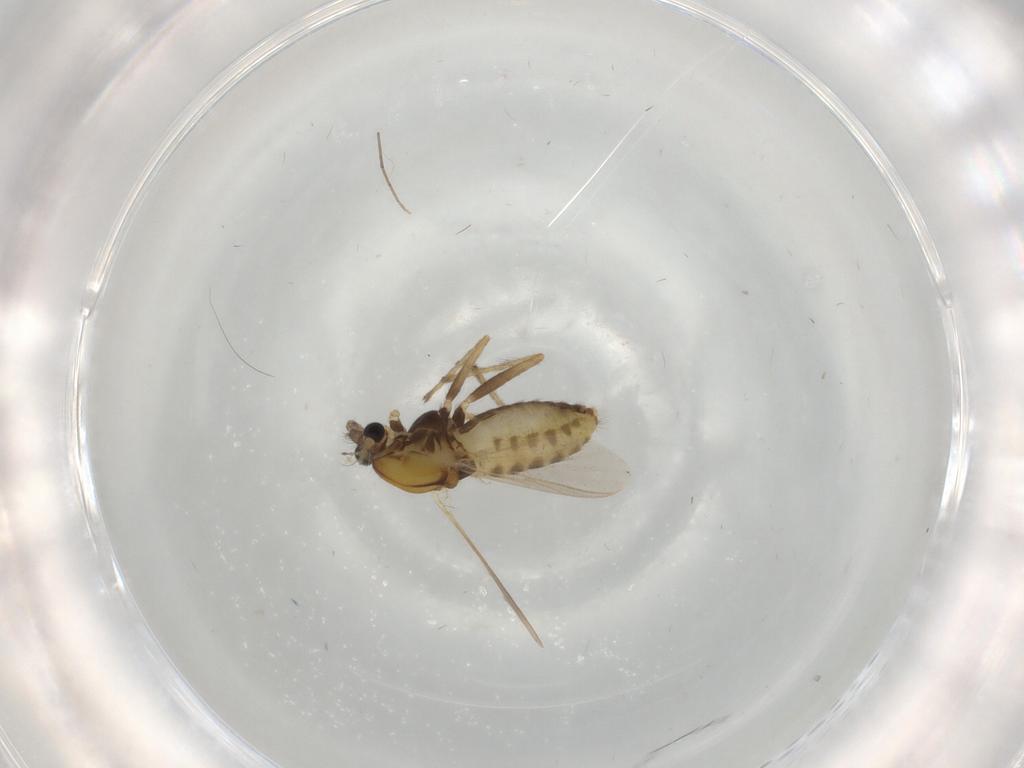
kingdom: Animalia
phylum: Arthropoda
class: Insecta
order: Diptera
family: Chironomidae
